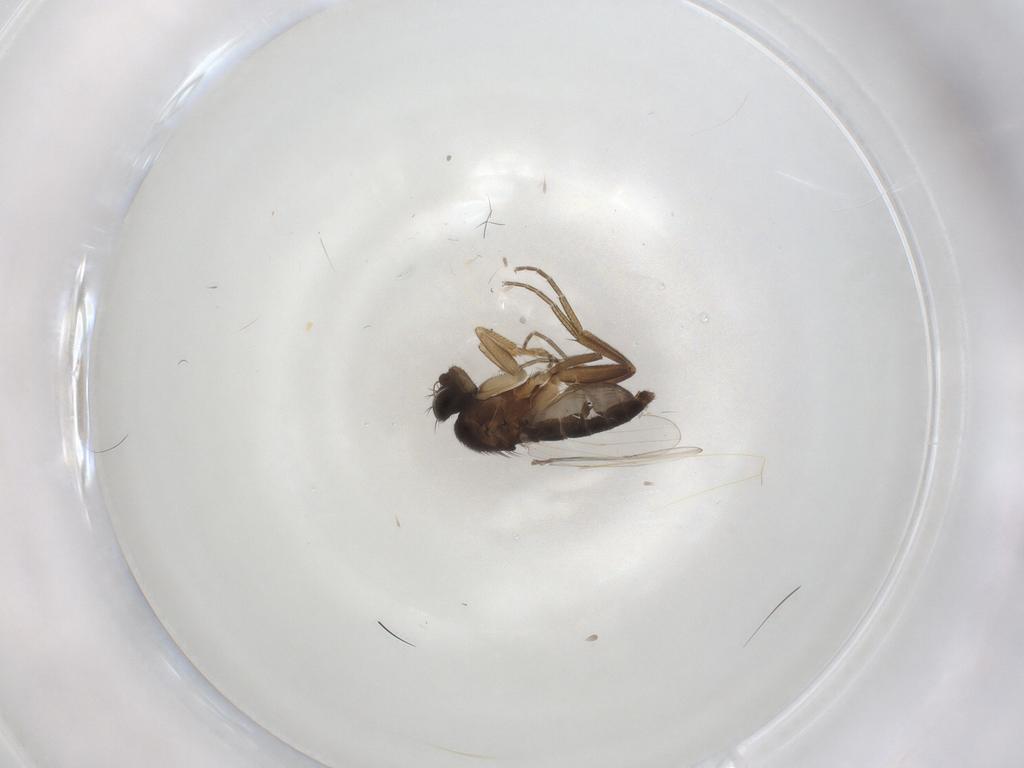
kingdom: Animalia
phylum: Arthropoda
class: Insecta
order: Diptera
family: Phoridae
